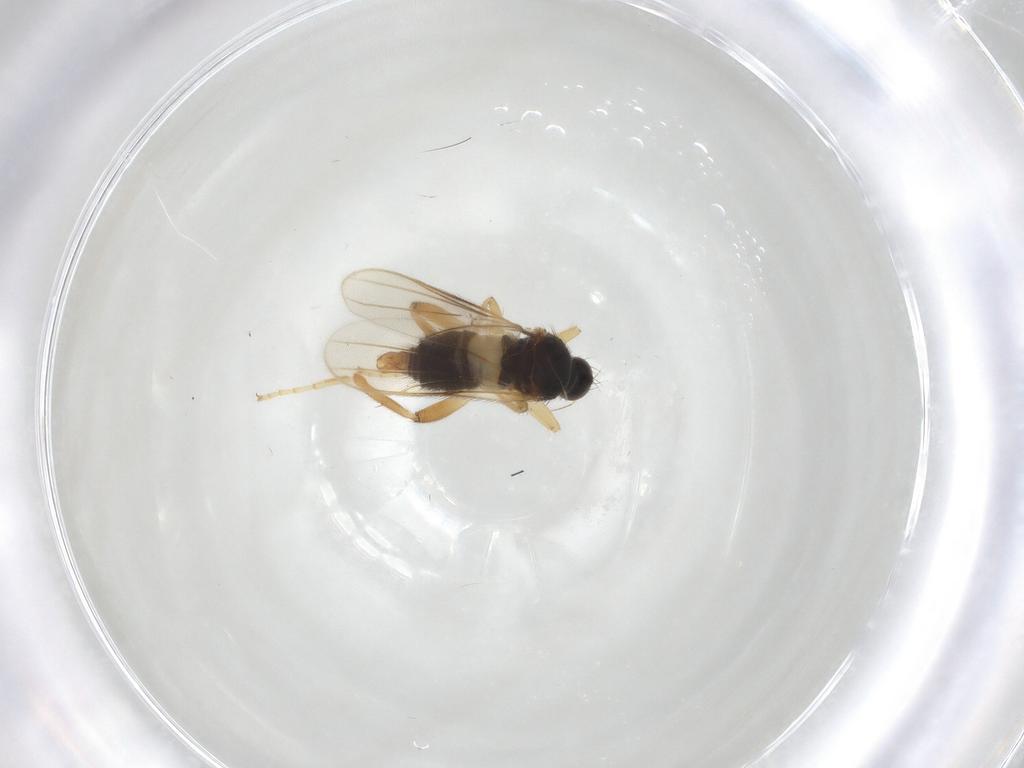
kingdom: Animalia
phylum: Arthropoda
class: Insecta
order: Diptera
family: Hybotidae
